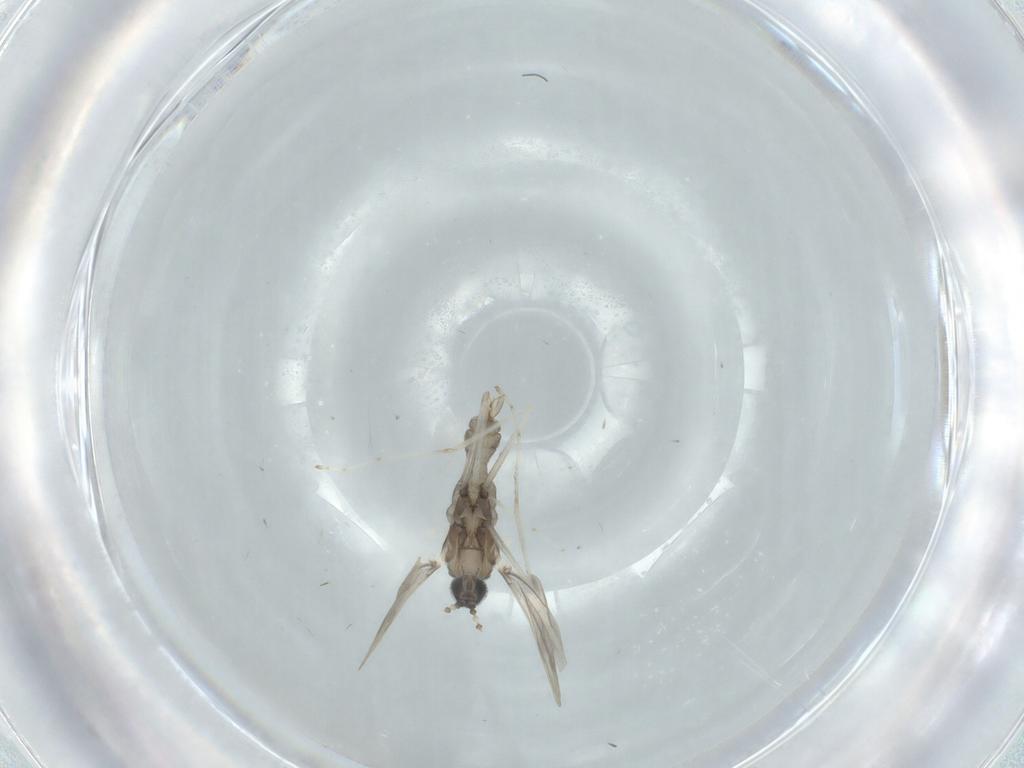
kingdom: Animalia
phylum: Arthropoda
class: Insecta
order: Diptera
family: Cecidomyiidae
